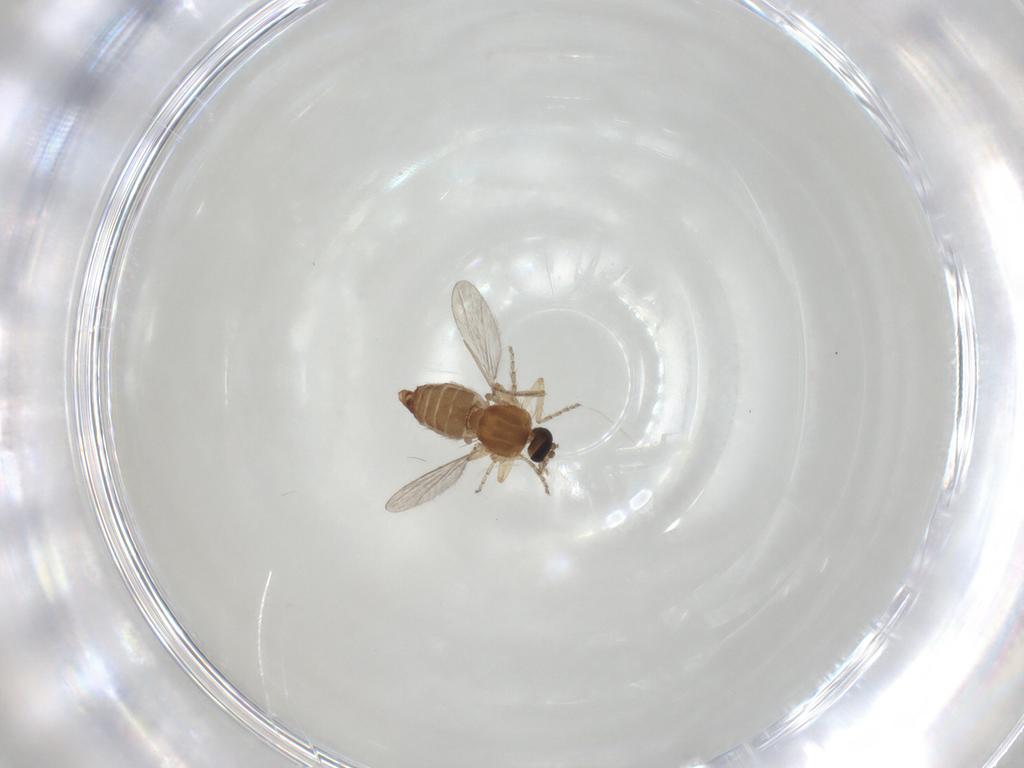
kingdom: Animalia
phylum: Arthropoda
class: Insecta
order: Diptera
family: Ceratopogonidae
